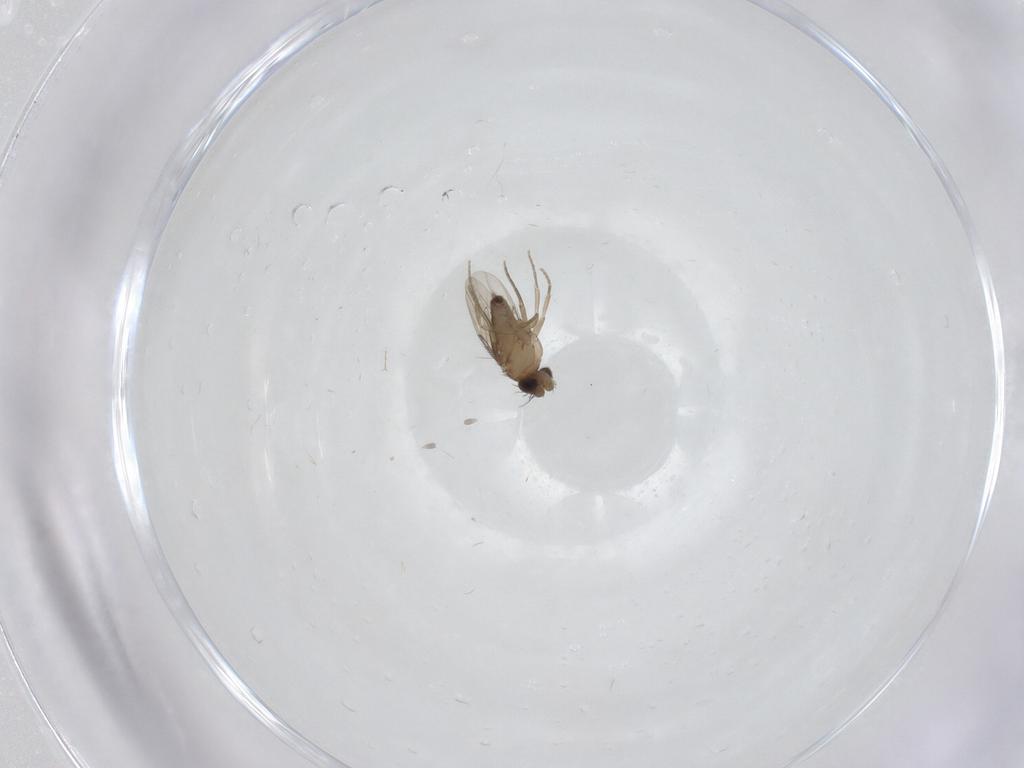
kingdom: Animalia
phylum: Arthropoda
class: Insecta
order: Diptera
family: Phoridae
